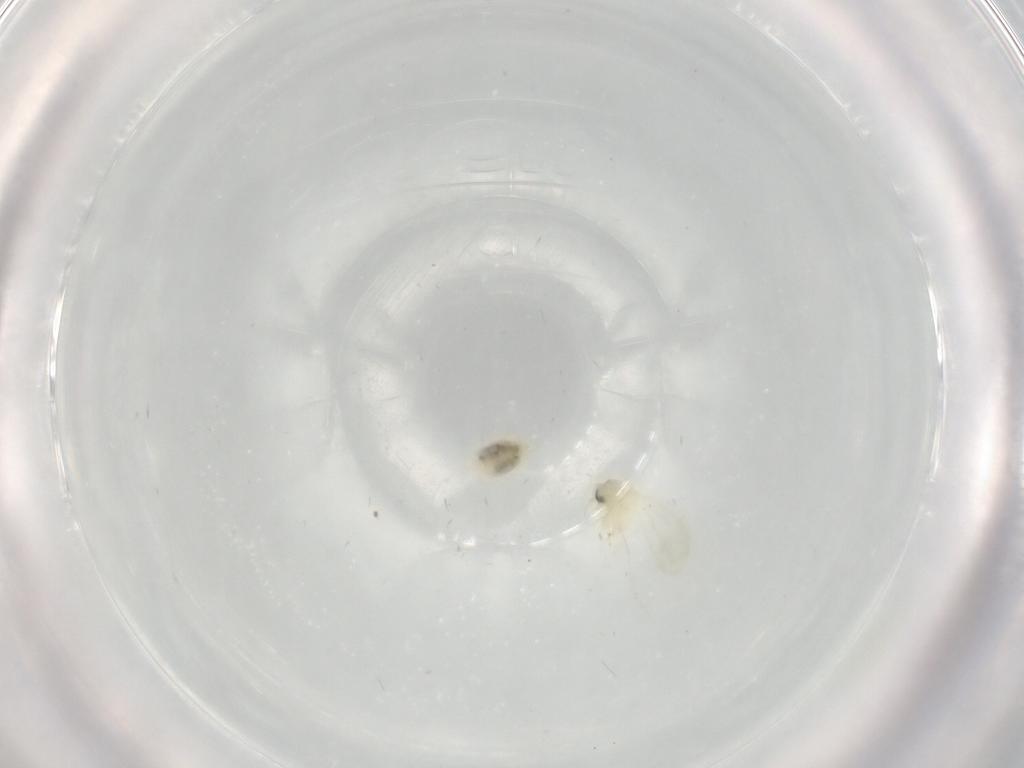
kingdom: Animalia
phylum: Arthropoda
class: Insecta
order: Hemiptera
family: Aleyrodidae
